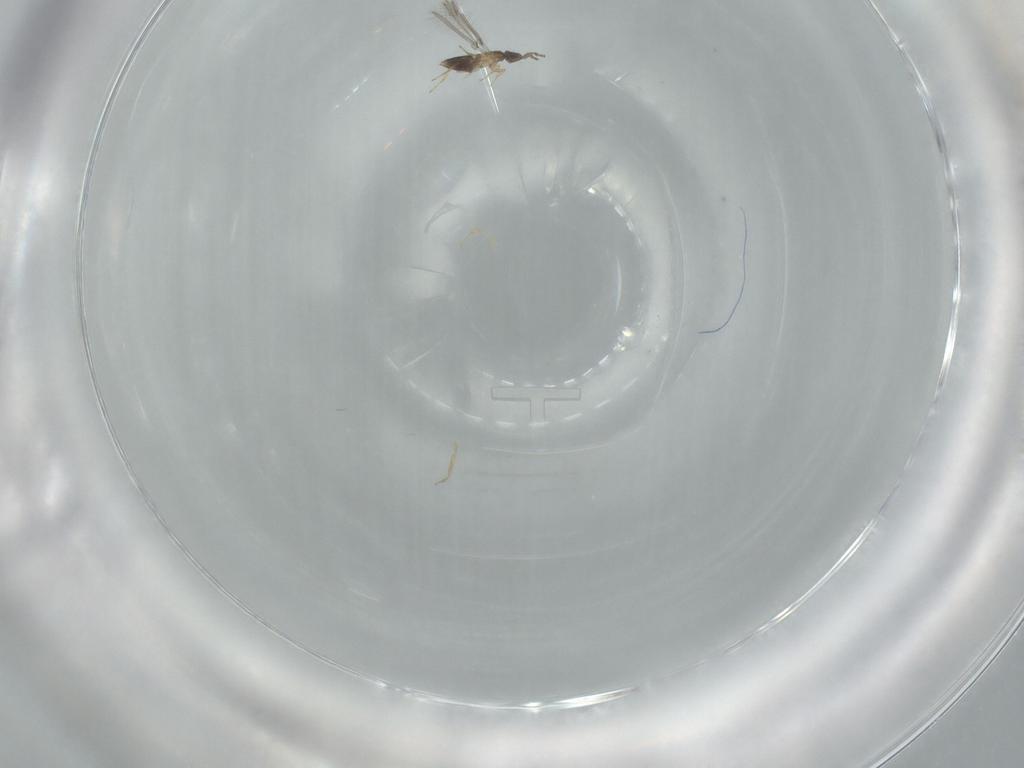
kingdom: Animalia
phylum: Arthropoda
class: Insecta
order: Hymenoptera
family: Mymaridae
